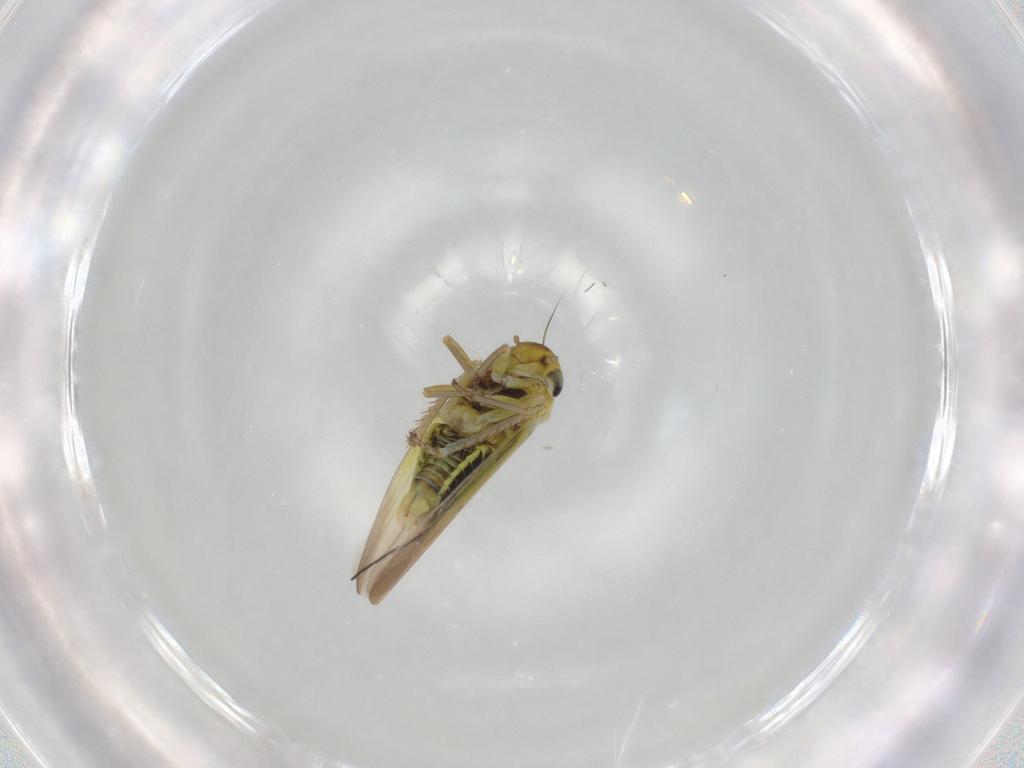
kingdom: Animalia
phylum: Arthropoda
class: Insecta
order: Hemiptera
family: Cicadellidae
